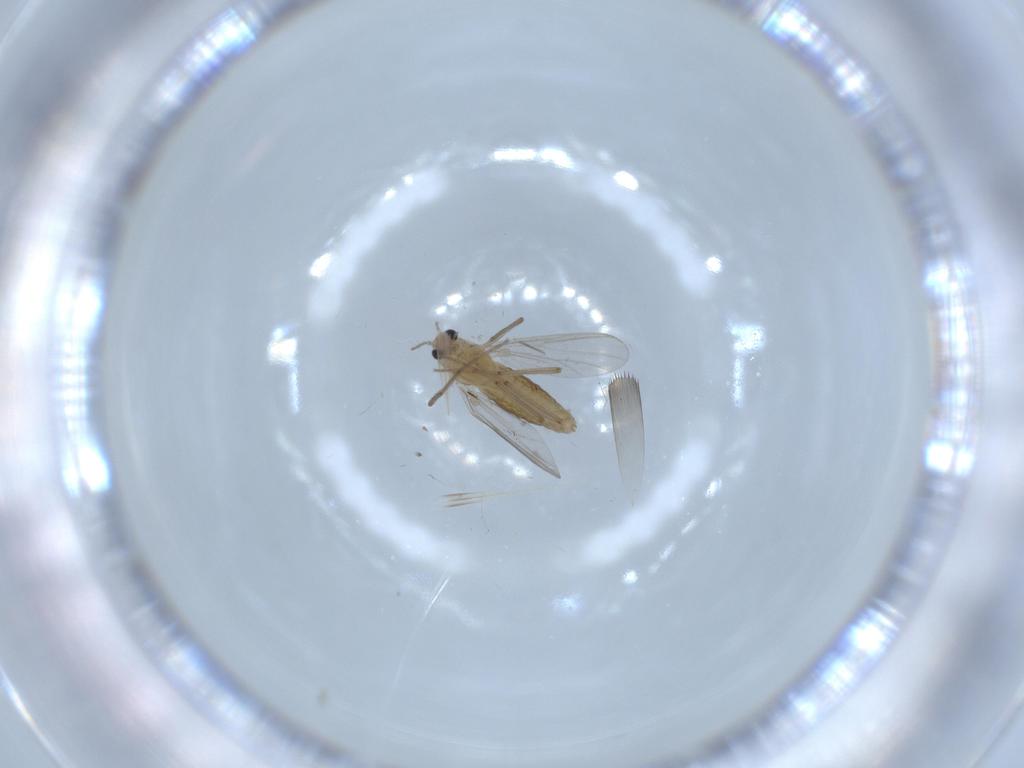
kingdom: Animalia
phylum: Arthropoda
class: Insecta
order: Diptera
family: Chironomidae
